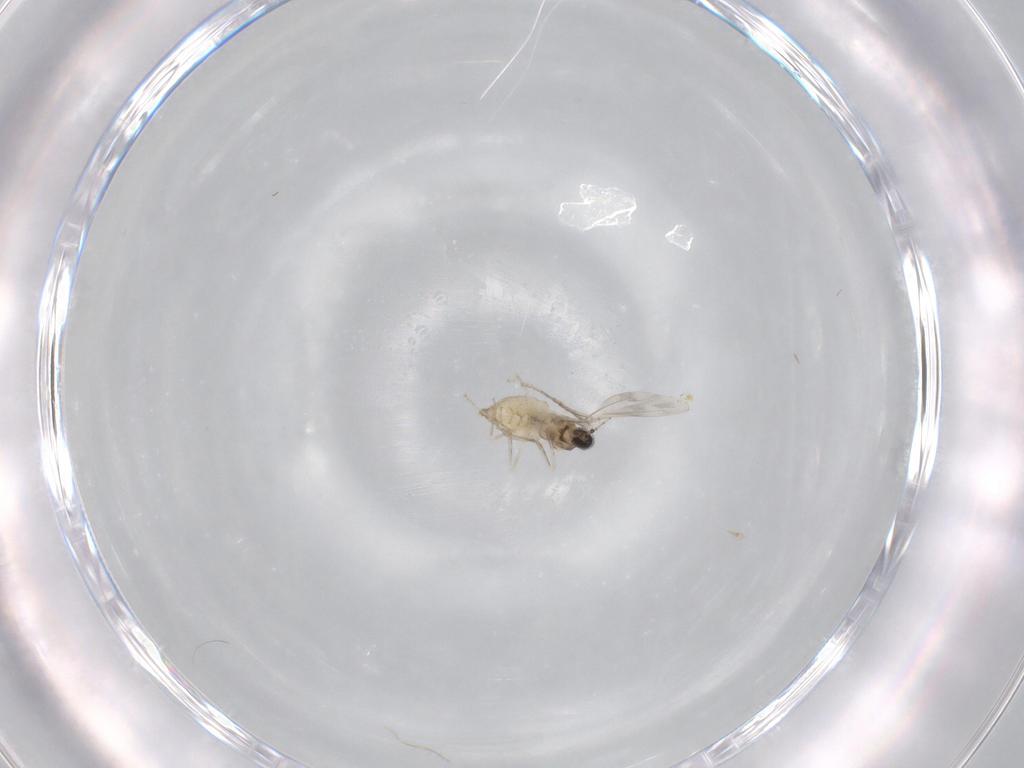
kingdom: Animalia
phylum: Arthropoda
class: Insecta
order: Diptera
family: Cecidomyiidae
